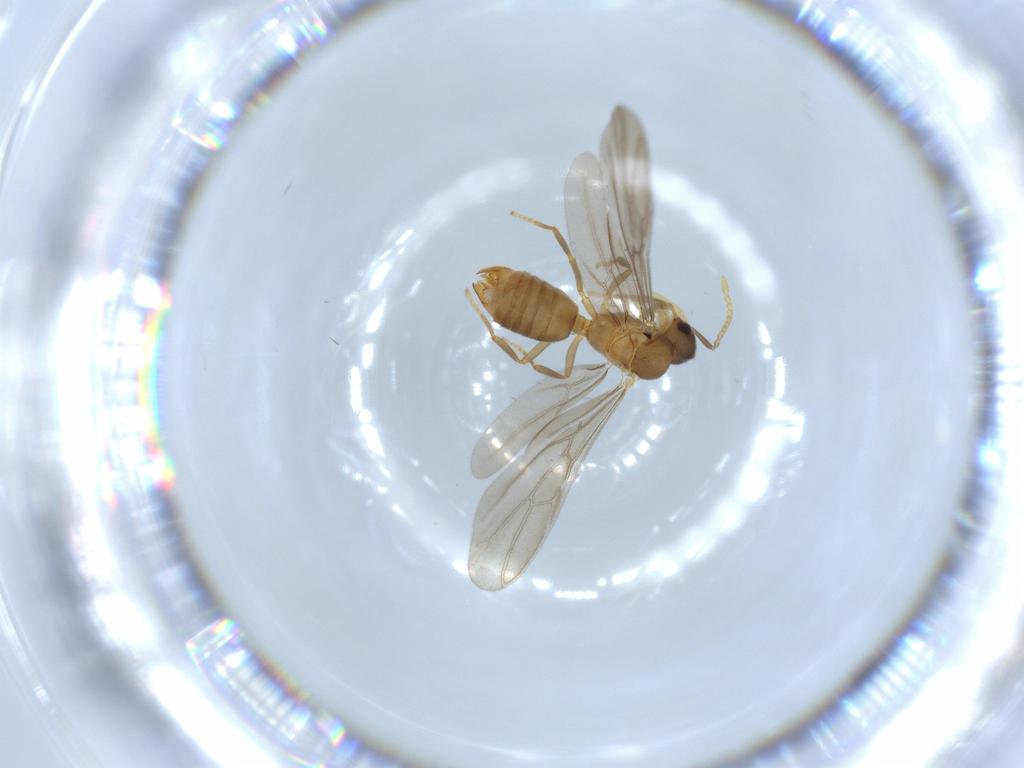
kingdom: Animalia
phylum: Arthropoda
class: Insecta
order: Hymenoptera
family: Formicidae
